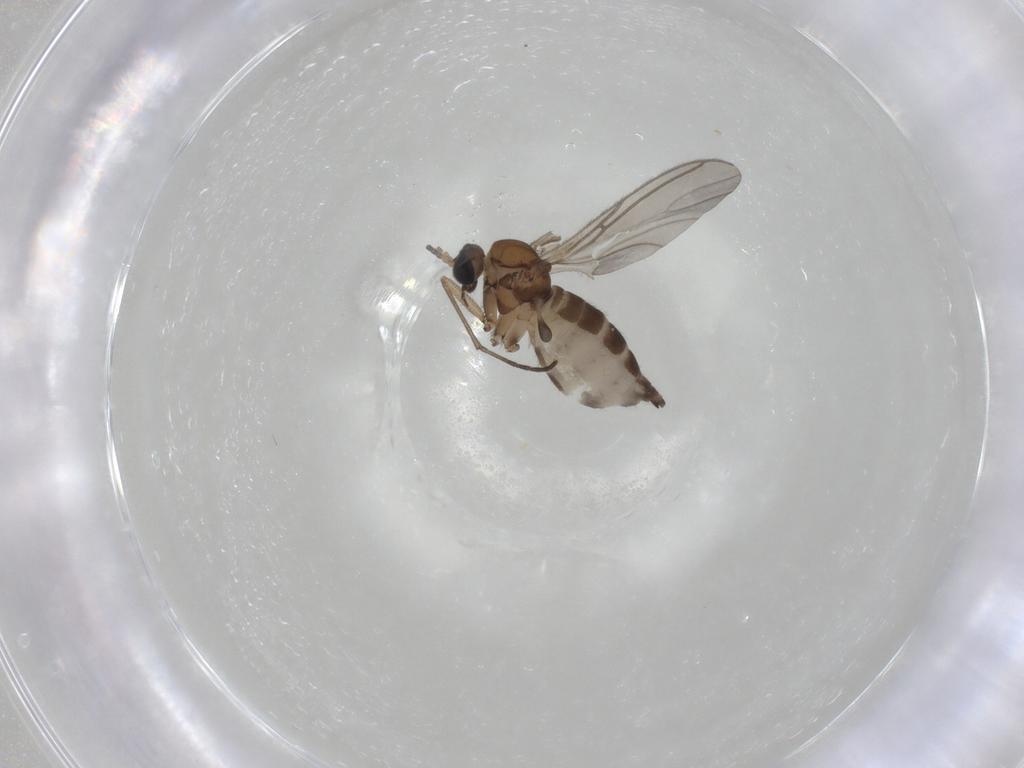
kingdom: Animalia
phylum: Arthropoda
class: Insecta
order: Diptera
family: Sciaridae
